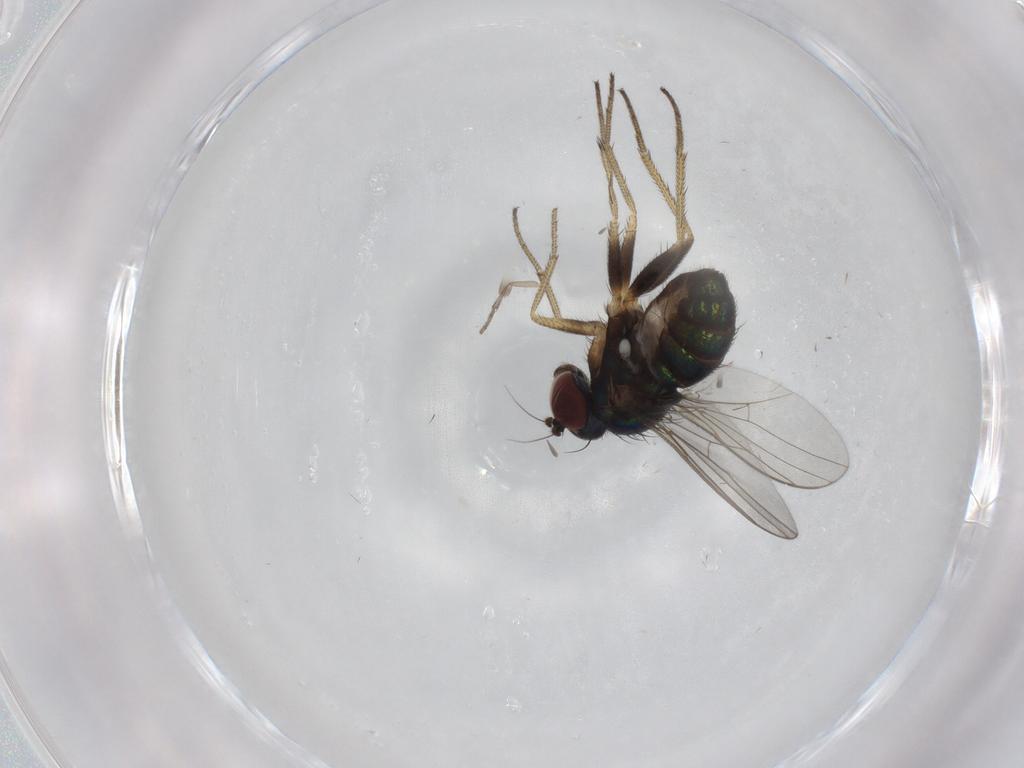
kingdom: Animalia
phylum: Arthropoda
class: Insecta
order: Diptera
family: Dolichopodidae
